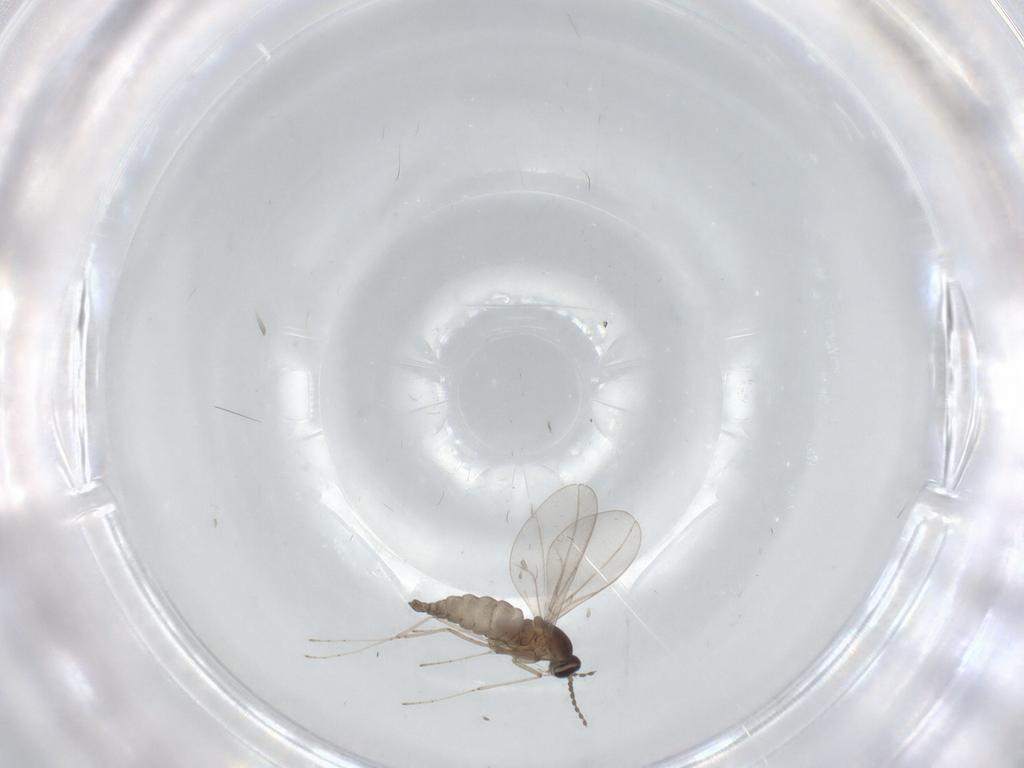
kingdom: Animalia
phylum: Arthropoda
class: Insecta
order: Diptera
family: Cecidomyiidae
